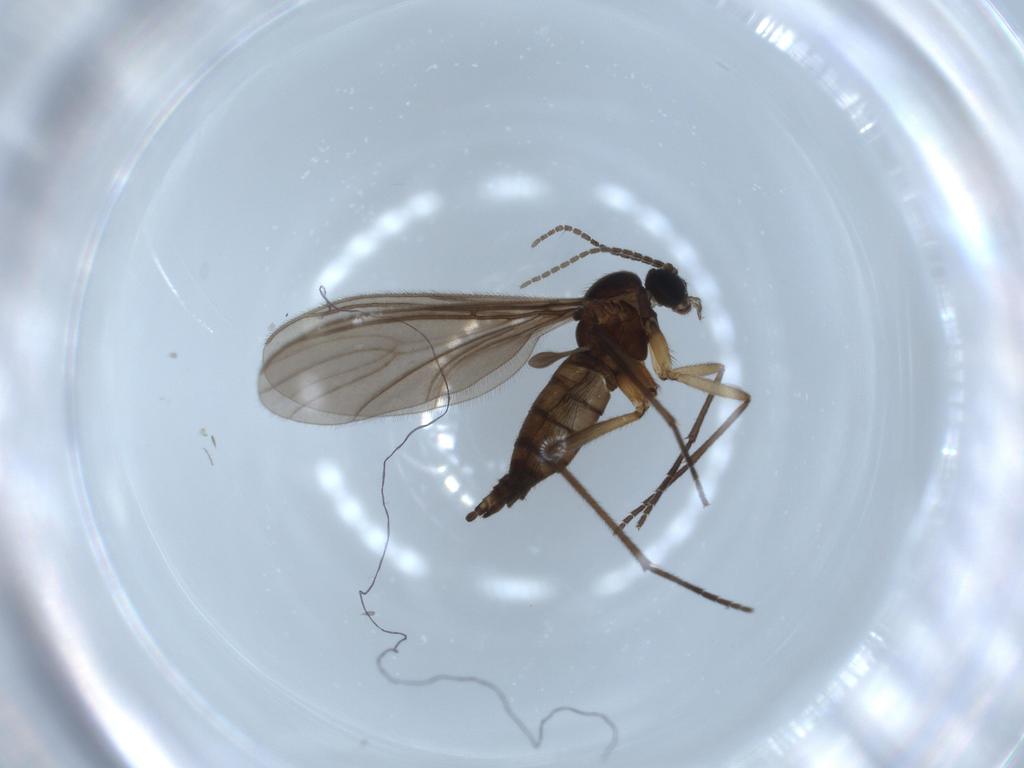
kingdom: Animalia
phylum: Arthropoda
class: Insecta
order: Diptera
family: Sciaridae
